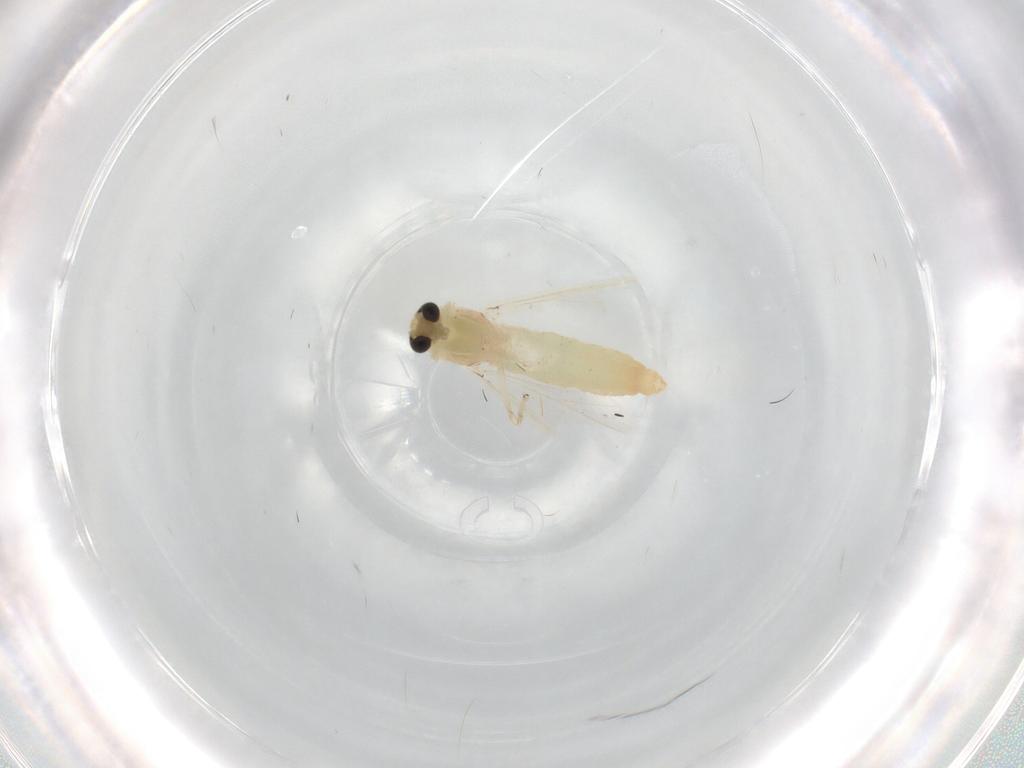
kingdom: Animalia
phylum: Arthropoda
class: Insecta
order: Diptera
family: Chironomidae
